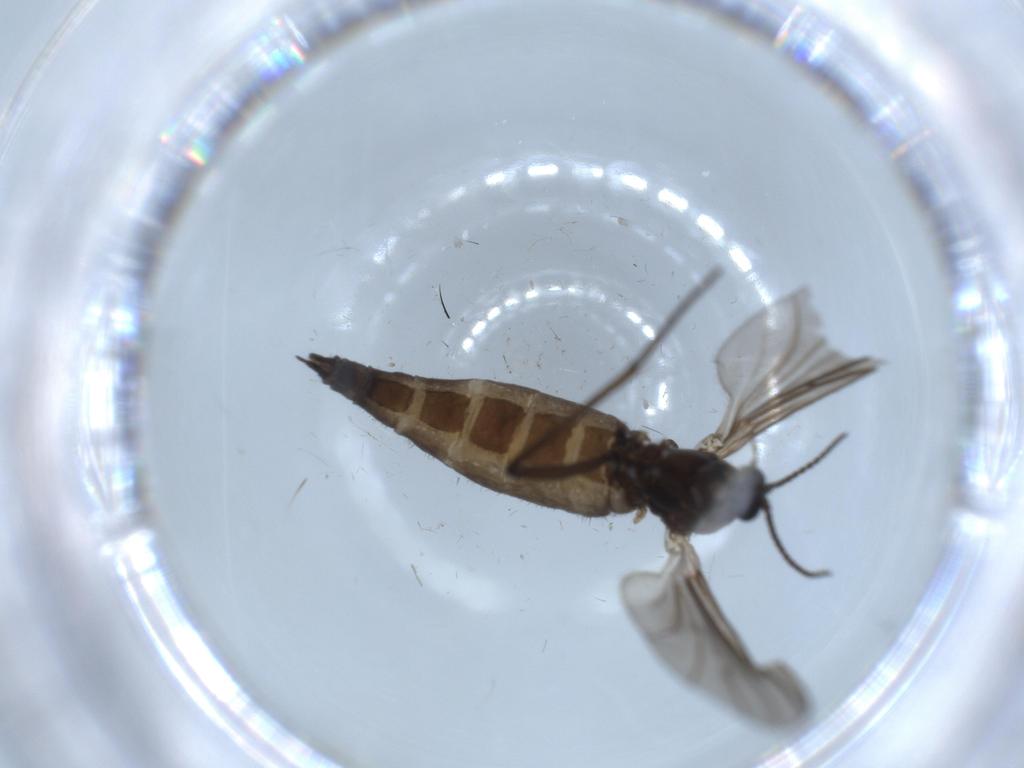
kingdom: Animalia
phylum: Arthropoda
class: Insecta
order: Diptera
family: Sciaridae
